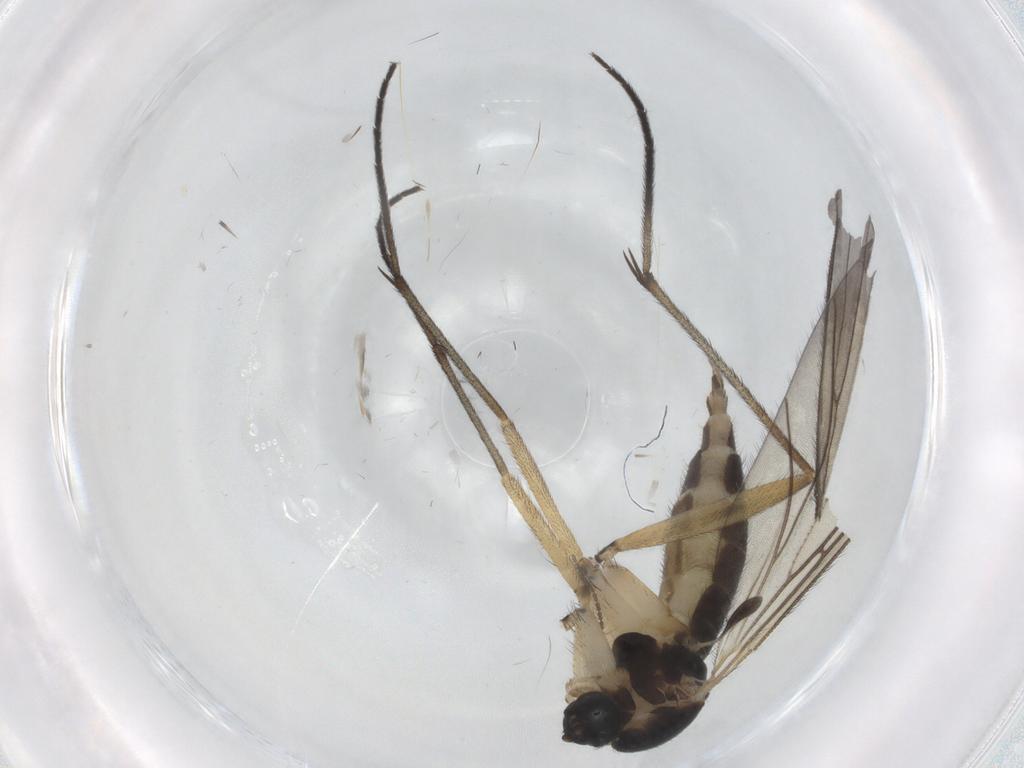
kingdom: Animalia
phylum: Arthropoda
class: Insecta
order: Diptera
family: Sciaridae
